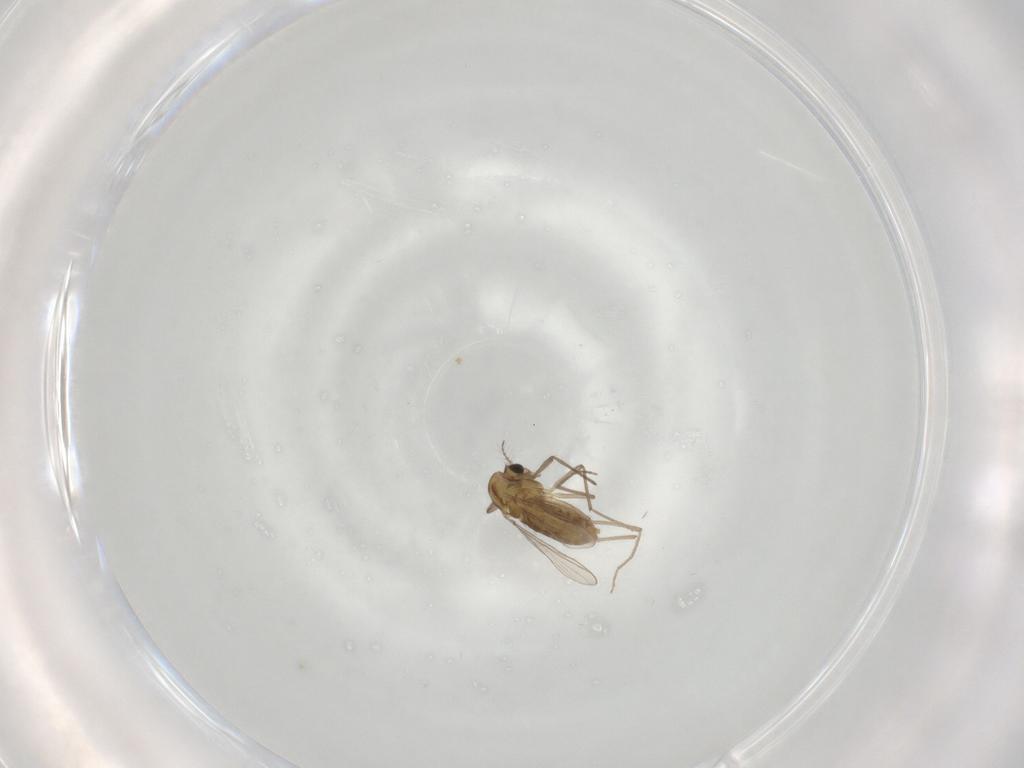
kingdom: Animalia
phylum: Arthropoda
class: Insecta
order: Diptera
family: Chironomidae
